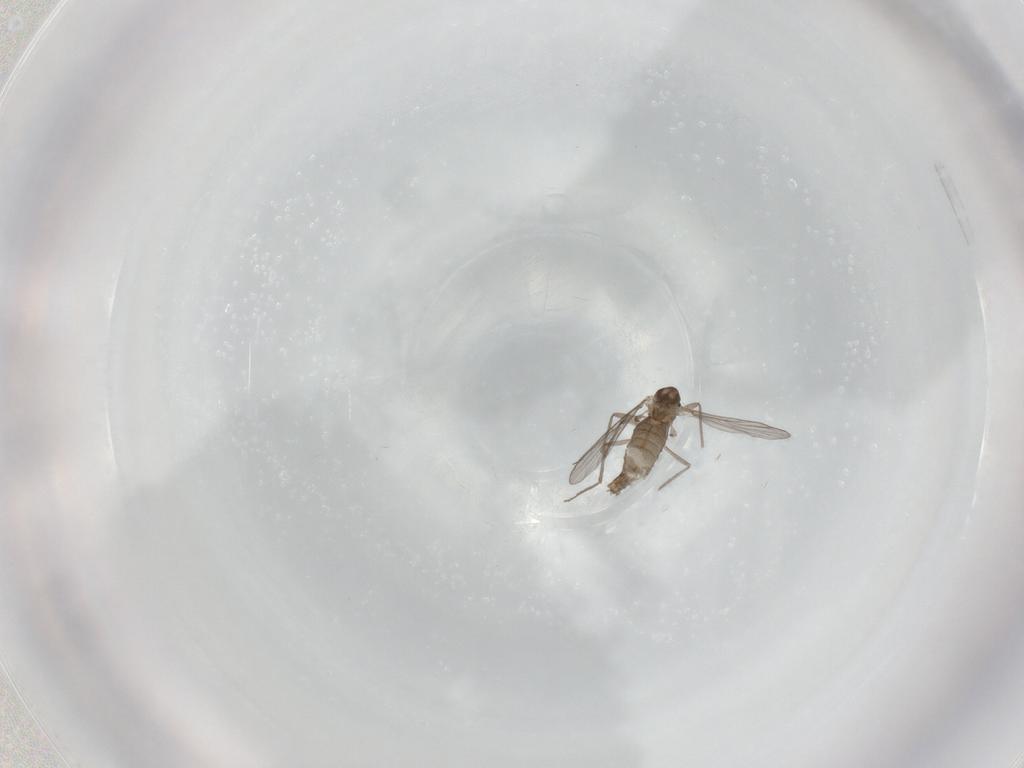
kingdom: Animalia
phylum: Arthropoda
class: Insecta
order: Diptera
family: Chironomidae
